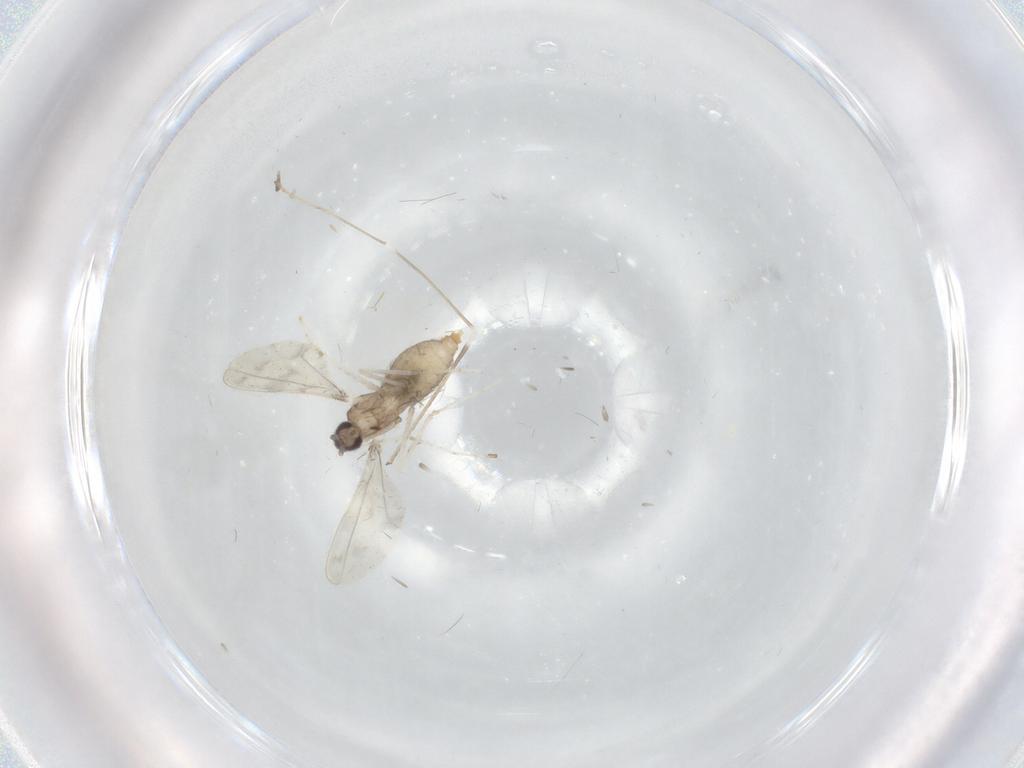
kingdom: Animalia
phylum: Arthropoda
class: Insecta
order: Diptera
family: Cecidomyiidae
